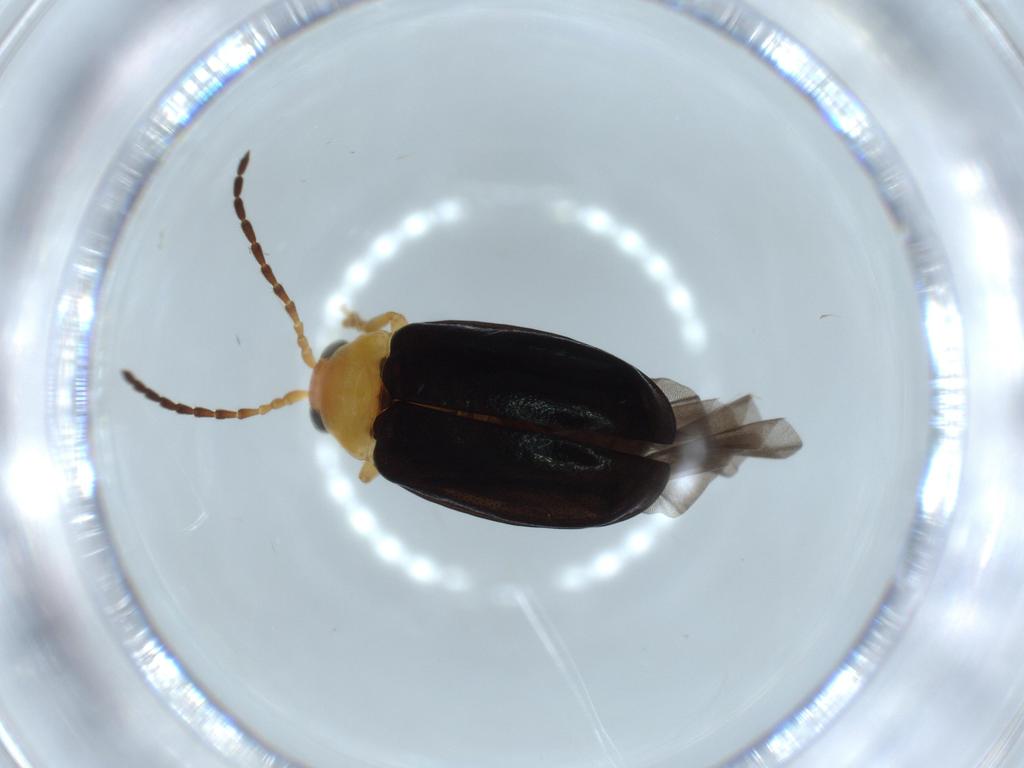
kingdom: Animalia
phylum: Arthropoda
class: Insecta
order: Coleoptera
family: Chrysomelidae
